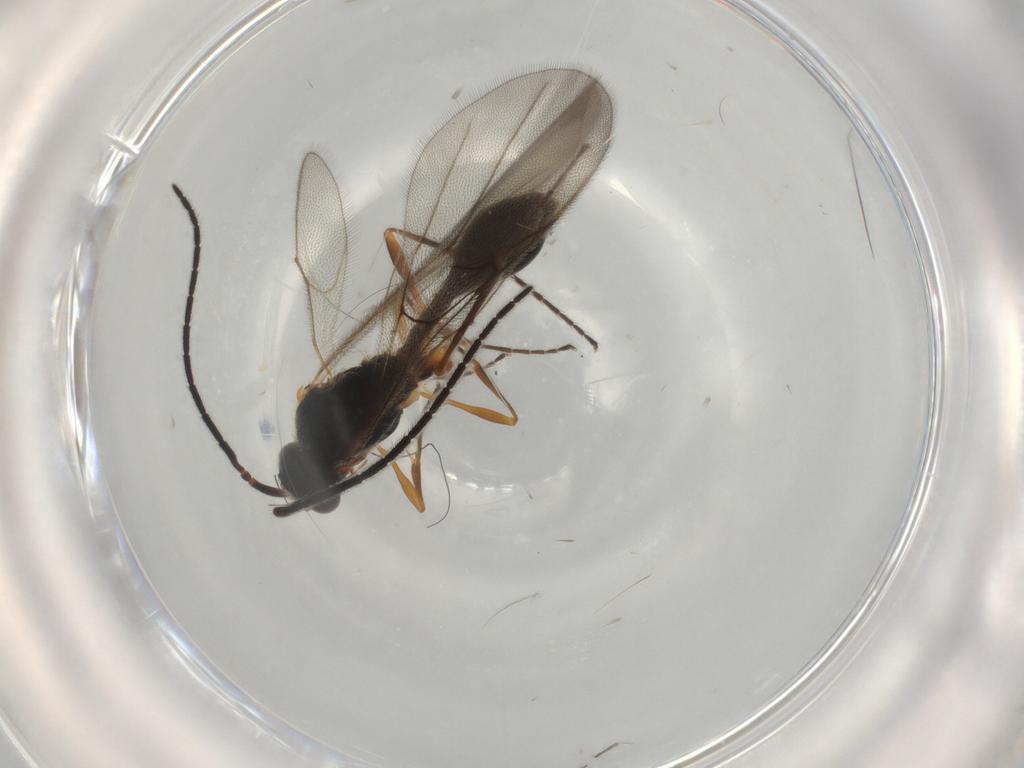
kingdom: Animalia
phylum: Arthropoda
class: Insecta
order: Hymenoptera
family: Diapriidae
